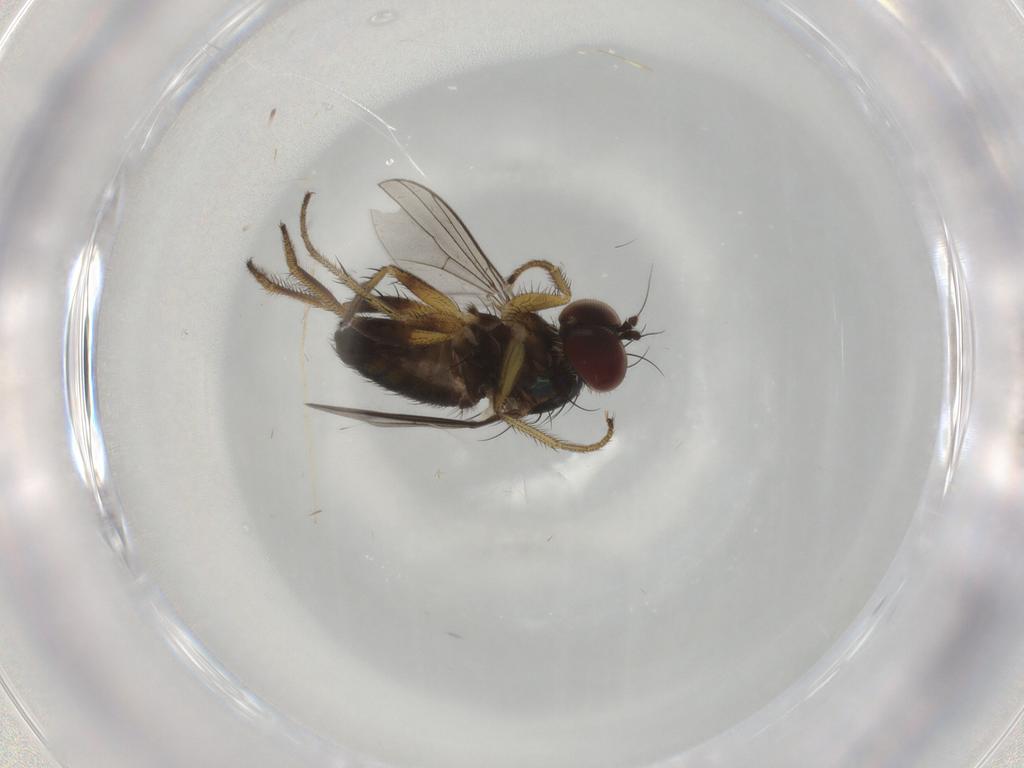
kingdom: Animalia
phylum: Arthropoda
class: Insecta
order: Diptera
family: Dolichopodidae
